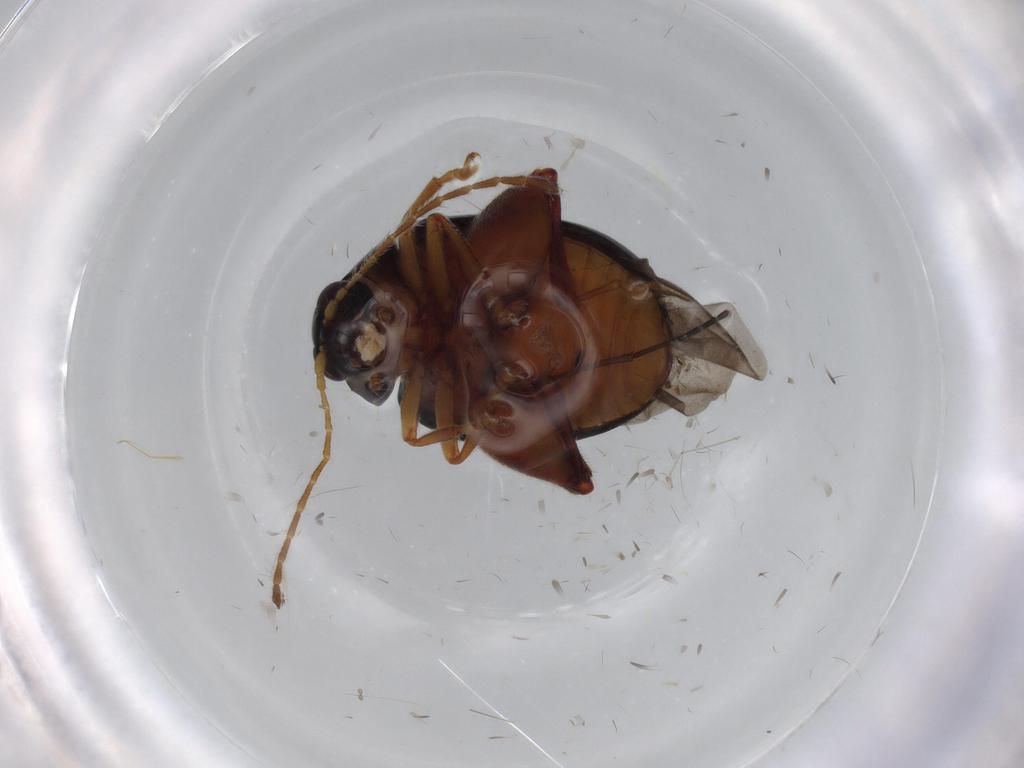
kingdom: Animalia
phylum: Arthropoda
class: Insecta
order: Coleoptera
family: Chrysomelidae
